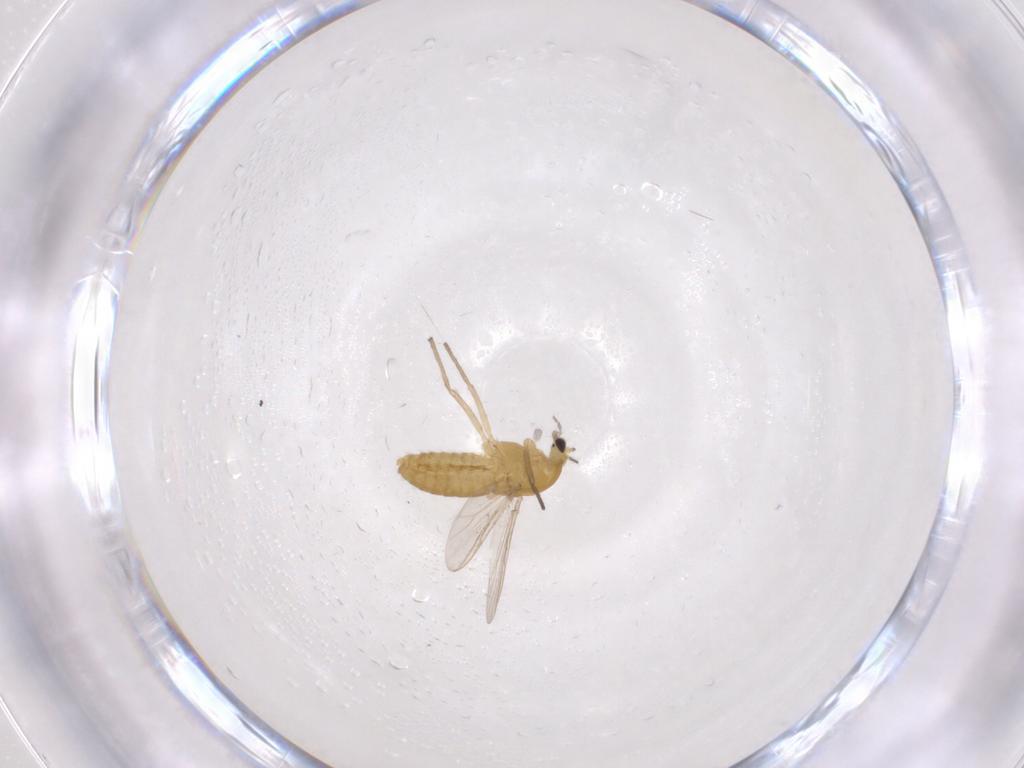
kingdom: Animalia
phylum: Arthropoda
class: Insecta
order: Diptera
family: Chironomidae
